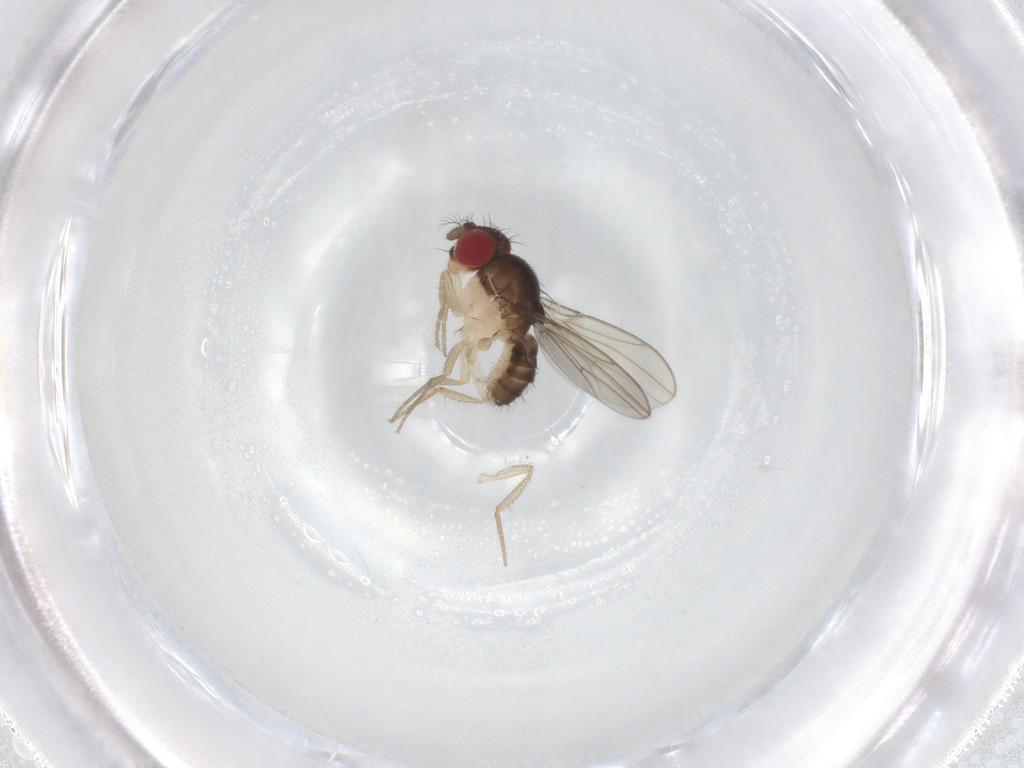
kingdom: Animalia
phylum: Arthropoda
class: Insecta
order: Diptera
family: Drosophilidae
